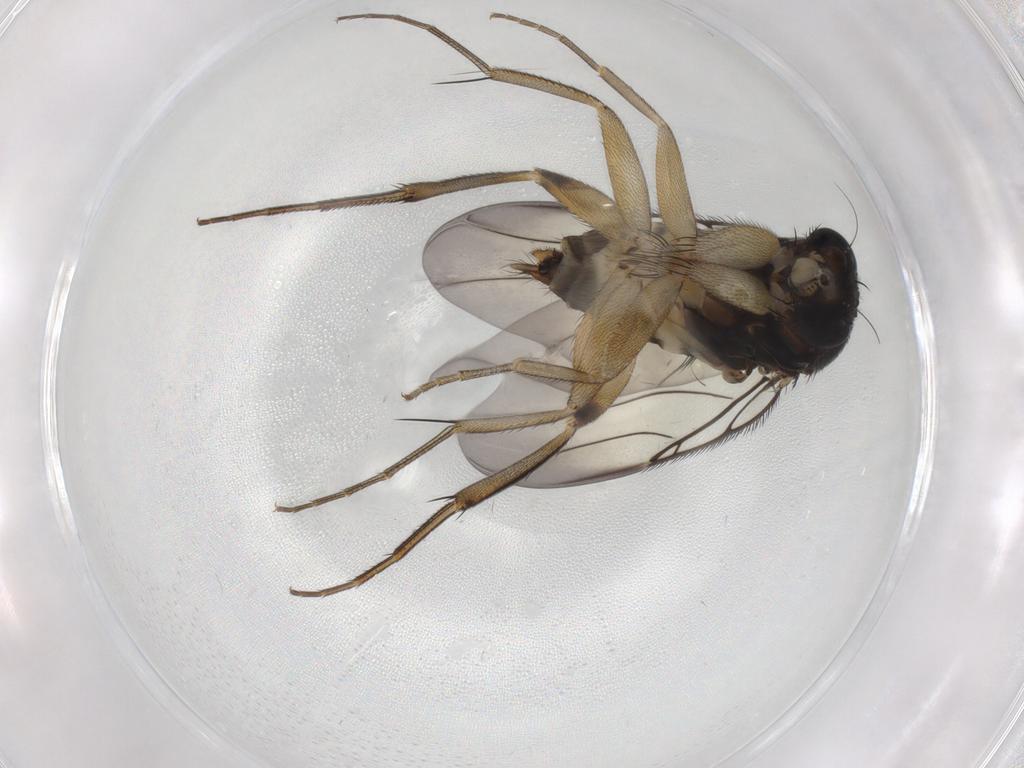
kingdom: Animalia
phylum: Arthropoda
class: Insecta
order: Diptera
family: Phoridae
